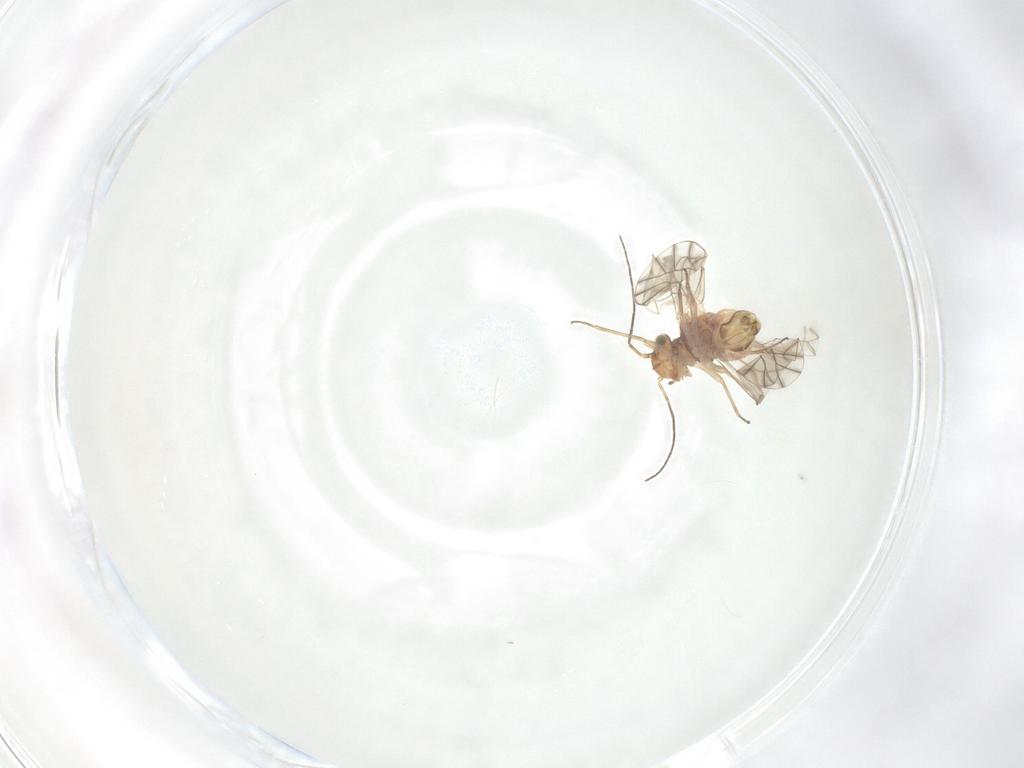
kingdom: Animalia
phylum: Arthropoda
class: Insecta
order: Psocodea
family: Lachesillidae
